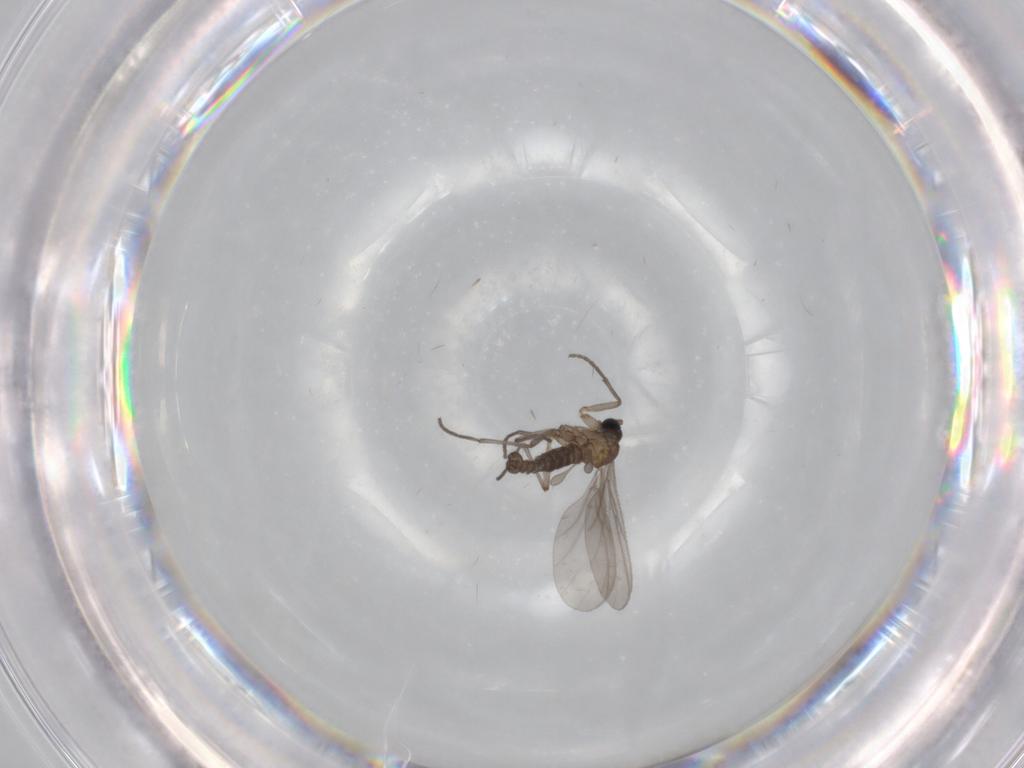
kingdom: Animalia
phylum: Arthropoda
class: Insecta
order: Diptera
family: Sciaridae
